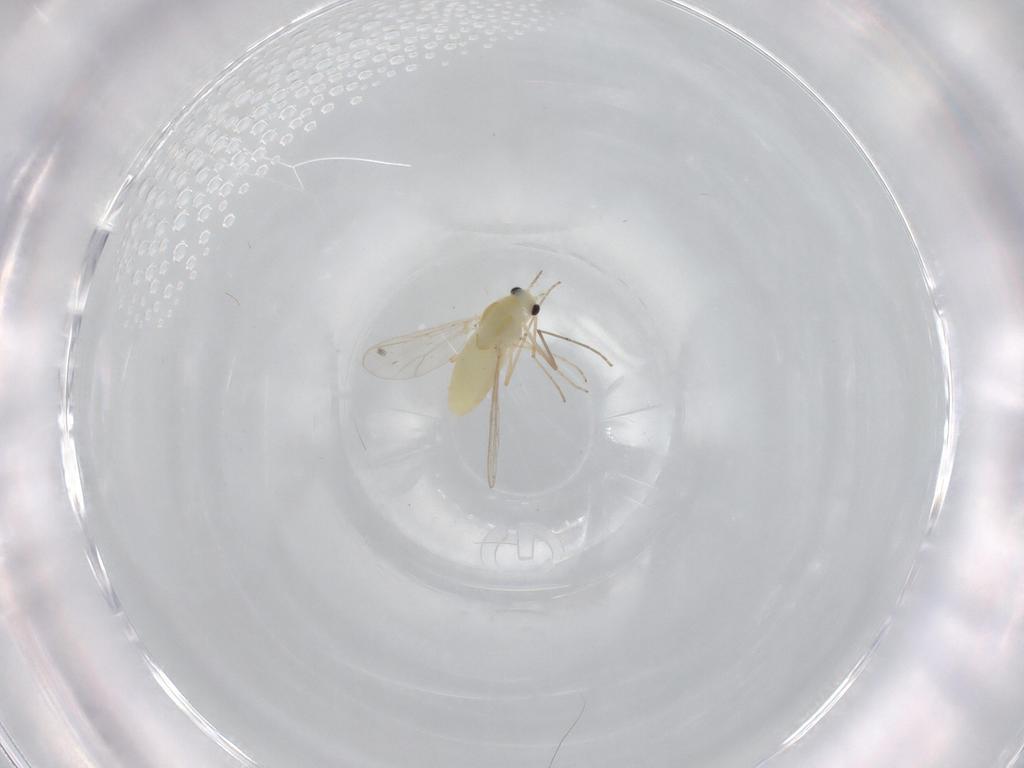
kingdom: Animalia
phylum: Arthropoda
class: Insecta
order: Diptera
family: Chironomidae
